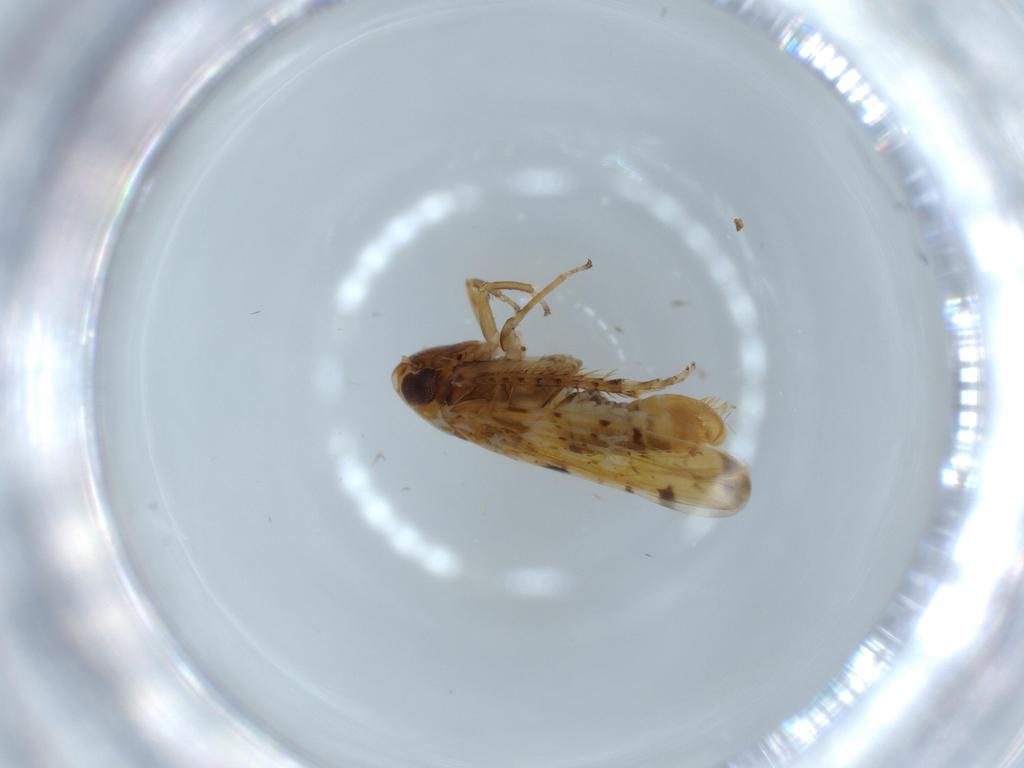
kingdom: Animalia
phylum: Arthropoda
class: Insecta
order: Hemiptera
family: Cicadellidae
